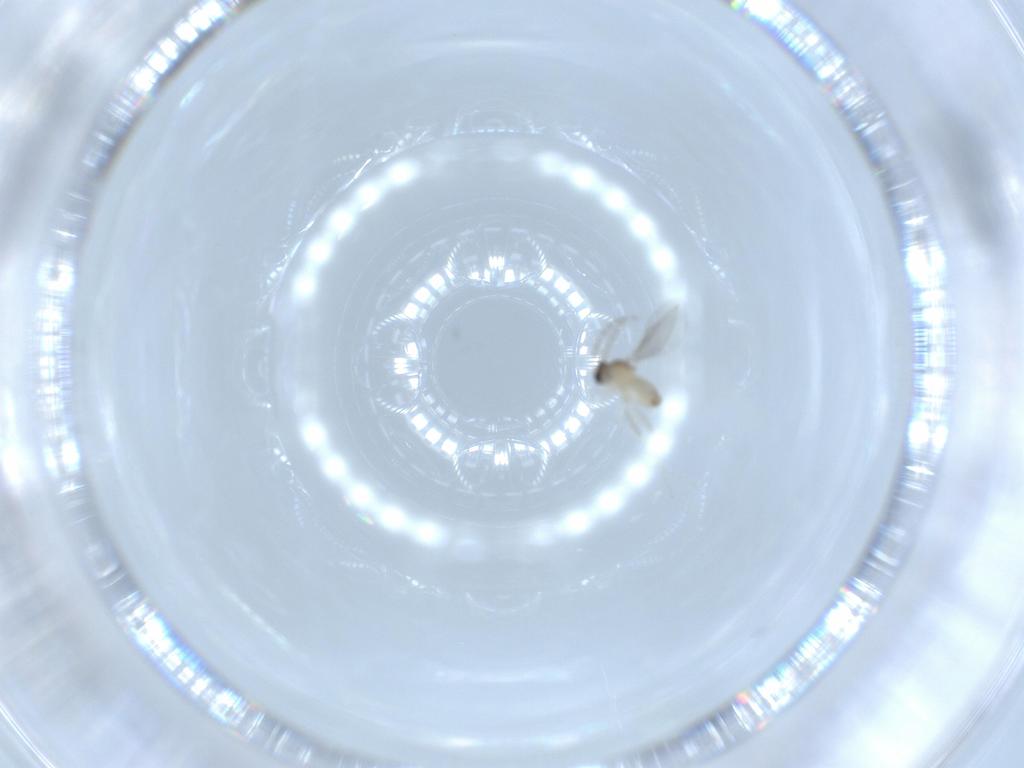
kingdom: Animalia
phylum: Arthropoda
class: Insecta
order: Diptera
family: Cecidomyiidae
